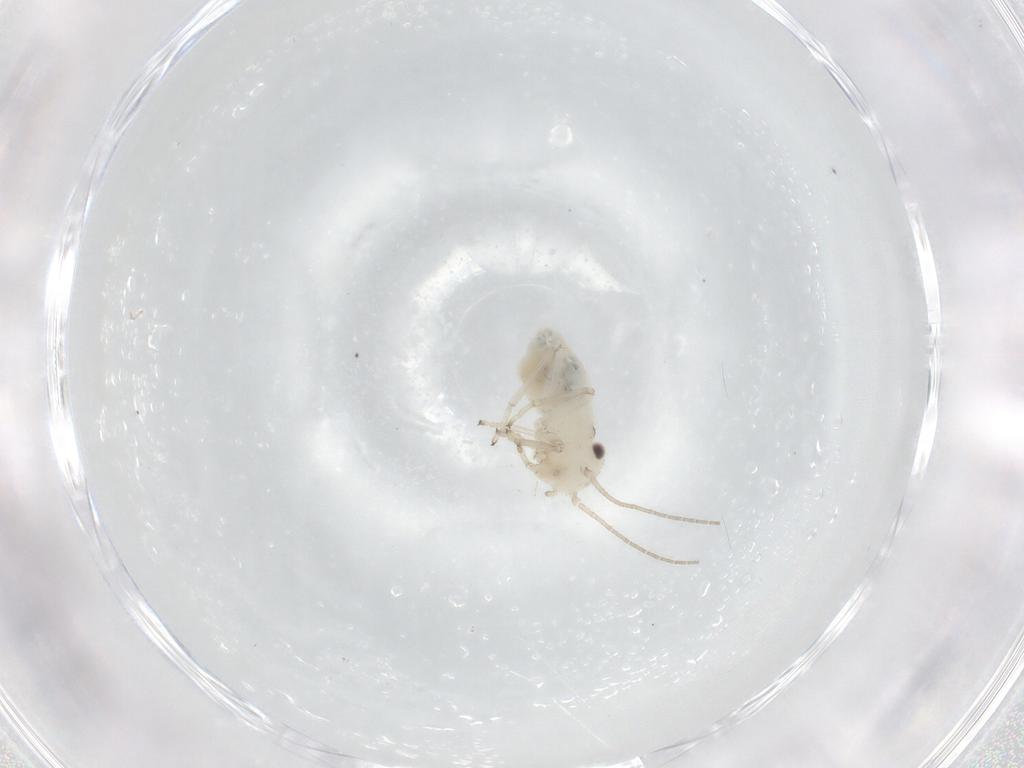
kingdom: Animalia
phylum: Arthropoda
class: Insecta
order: Psocodea
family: Caeciliusidae
